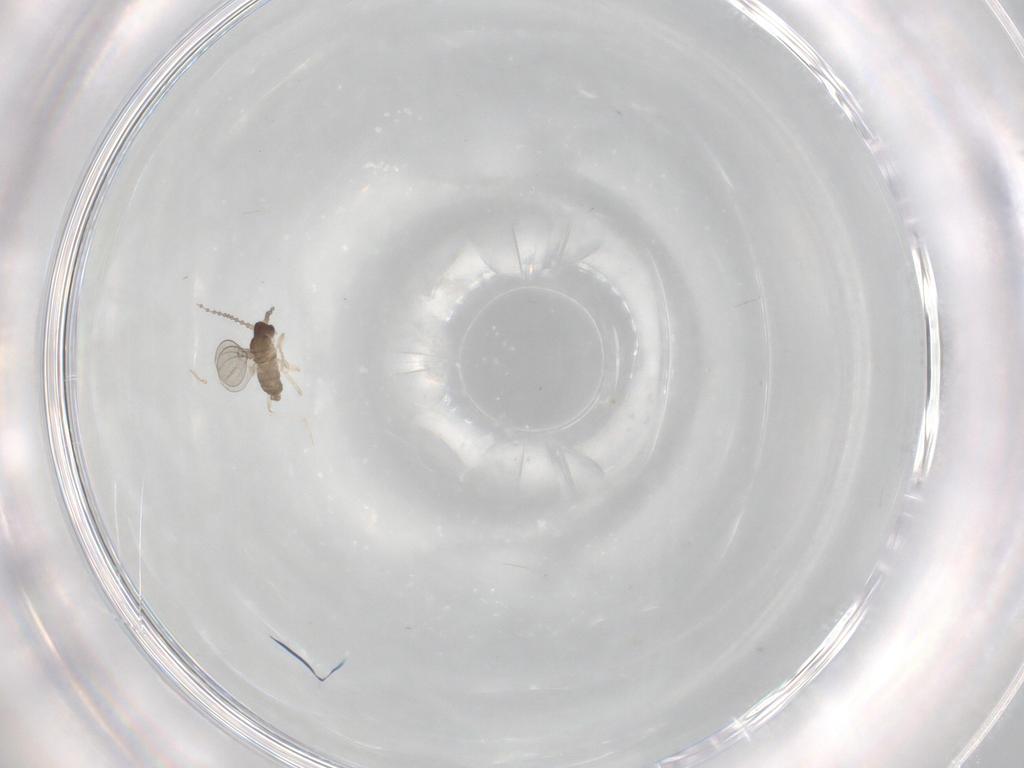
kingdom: Animalia
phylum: Arthropoda
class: Insecta
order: Diptera
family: Cecidomyiidae
